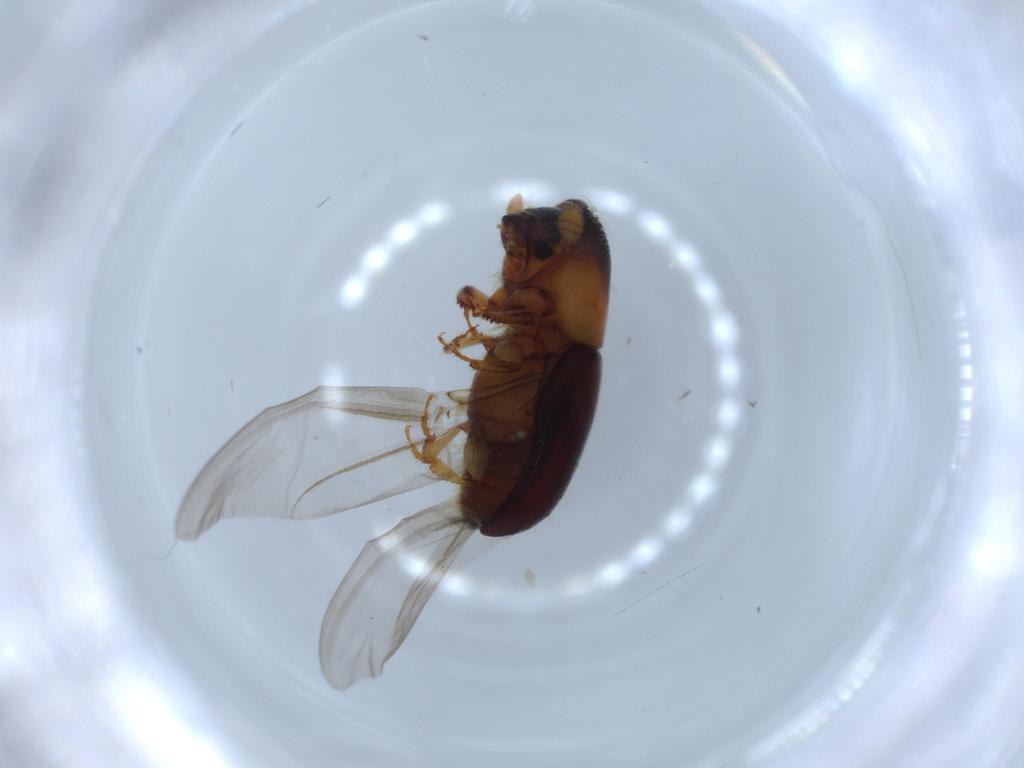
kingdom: Animalia
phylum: Arthropoda
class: Insecta
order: Coleoptera
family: Curculionidae
